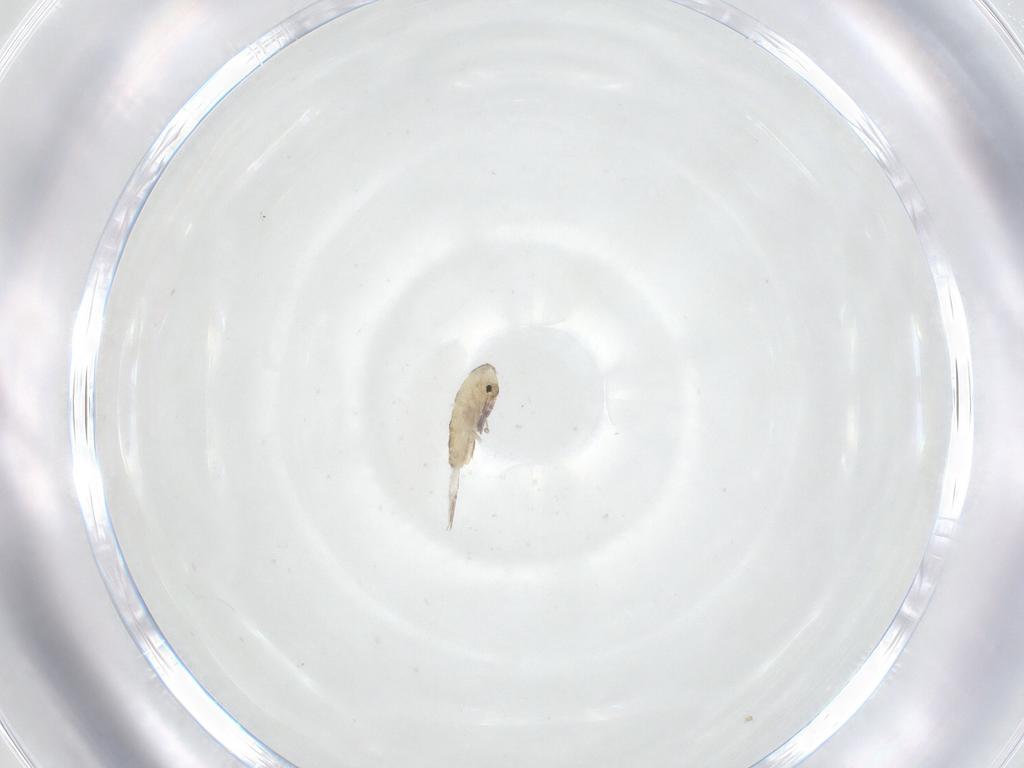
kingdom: Animalia
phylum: Arthropoda
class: Collembola
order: Entomobryomorpha
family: Entomobryidae
